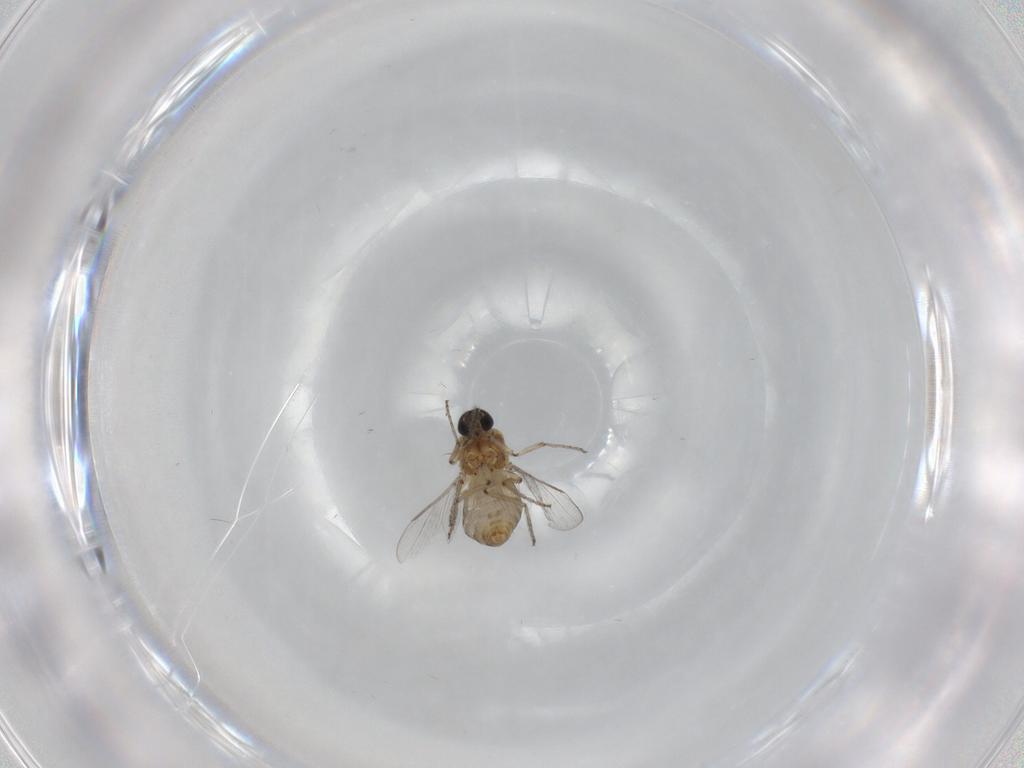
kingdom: Animalia
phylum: Arthropoda
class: Insecta
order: Diptera
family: Ceratopogonidae
